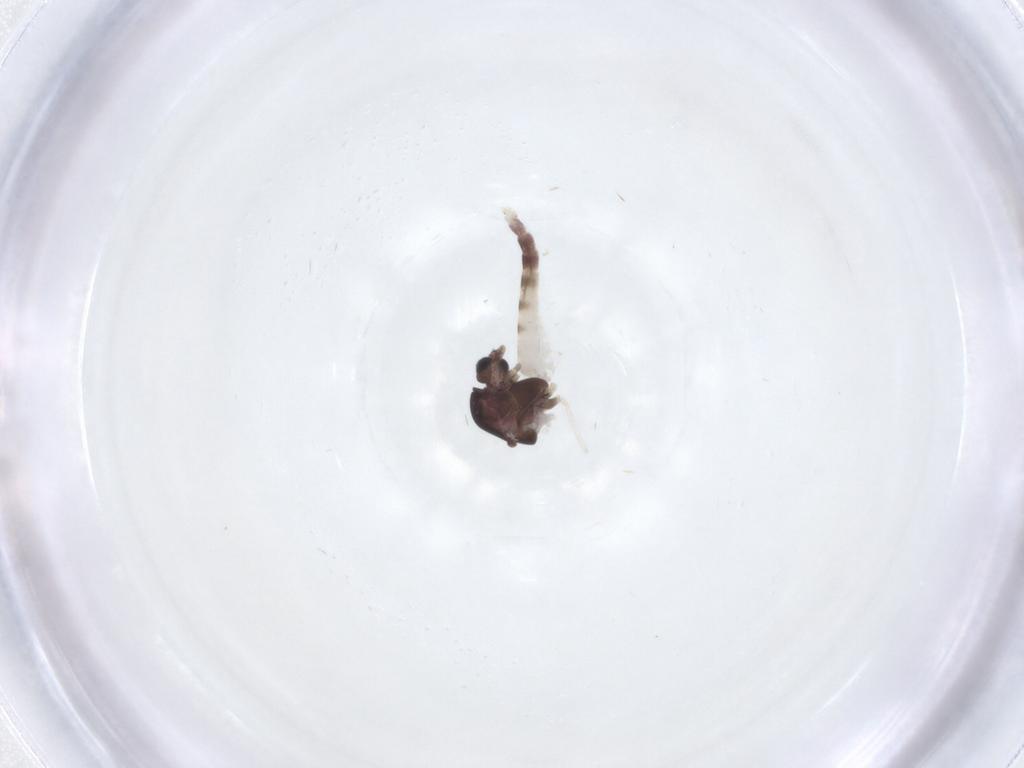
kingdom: Animalia
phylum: Arthropoda
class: Insecta
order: Diptera
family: Chironomidae
